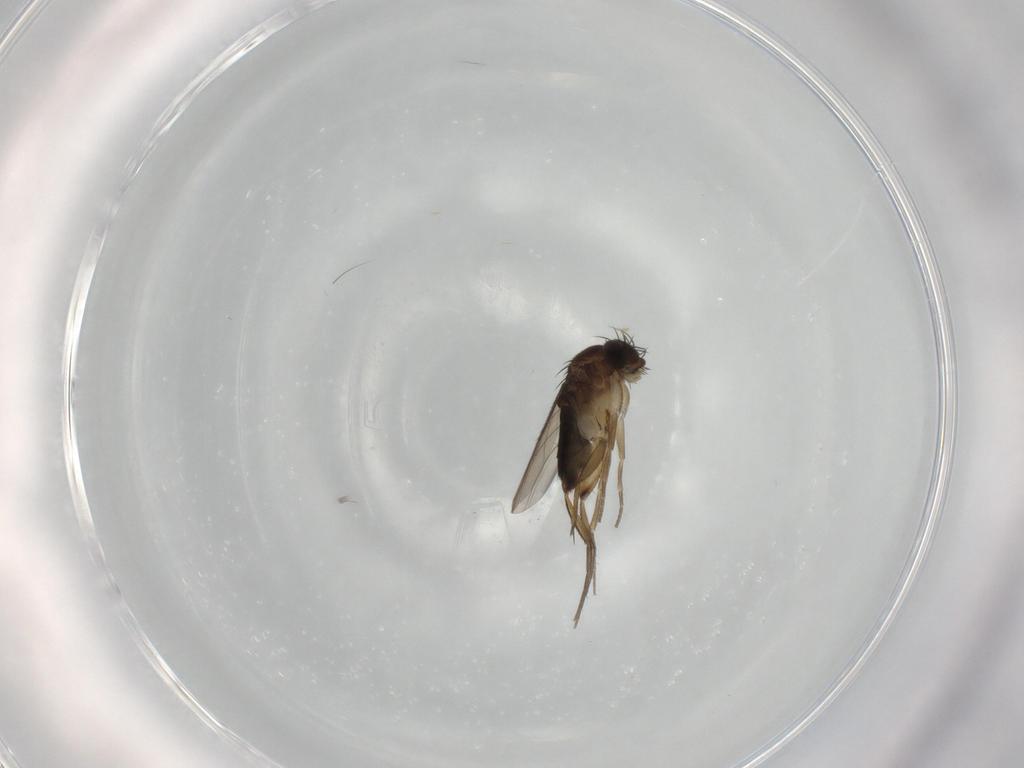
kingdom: Animalia
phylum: Arthropoda
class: Insecta
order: Diptera
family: Phoridae
